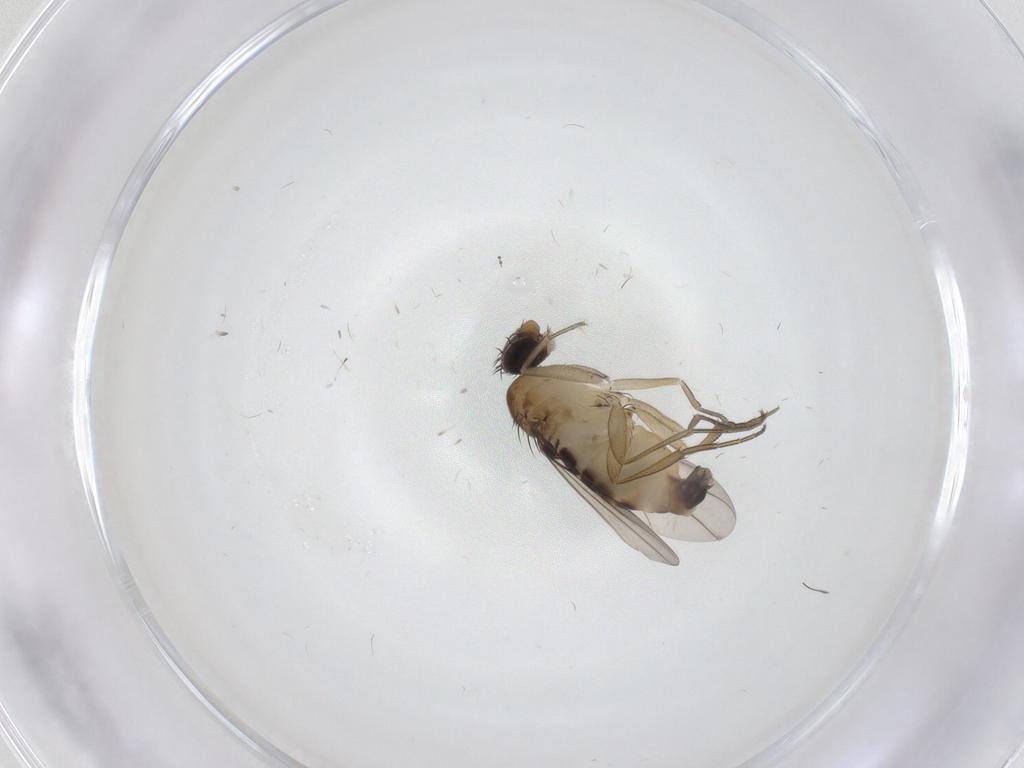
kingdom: Animalia
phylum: Arthropoda
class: Insecta
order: Diptera
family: Phoridae
